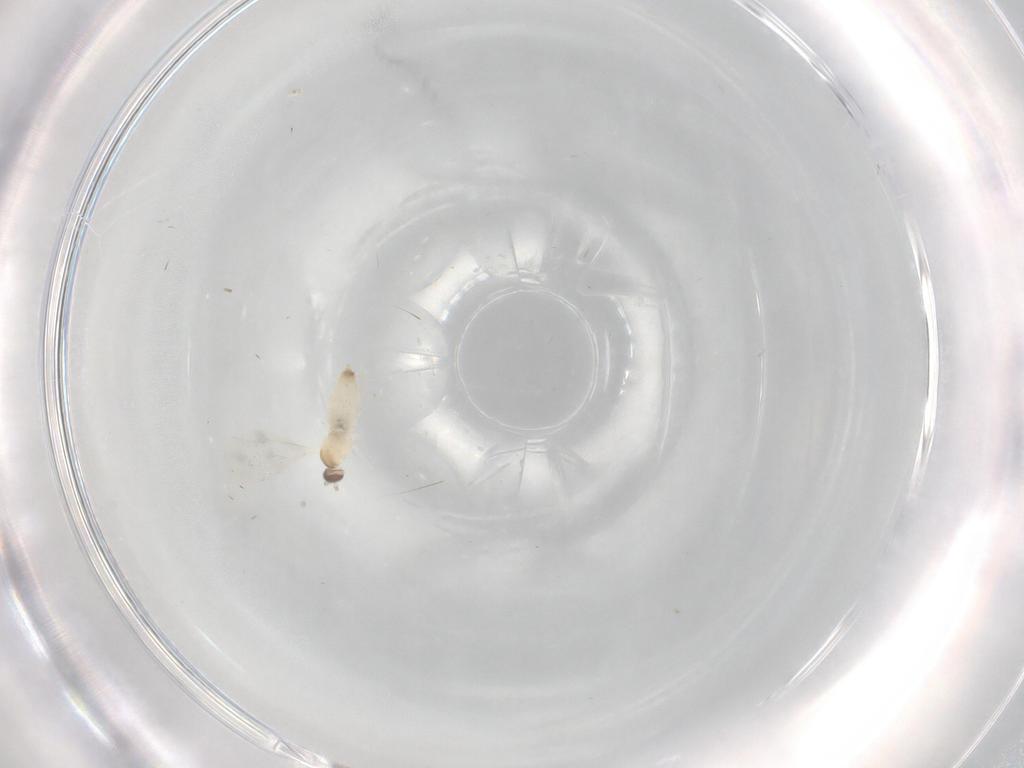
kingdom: Animalia
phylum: Arthropoda
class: Insecta
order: Diptera
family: Cecidomyiidae
